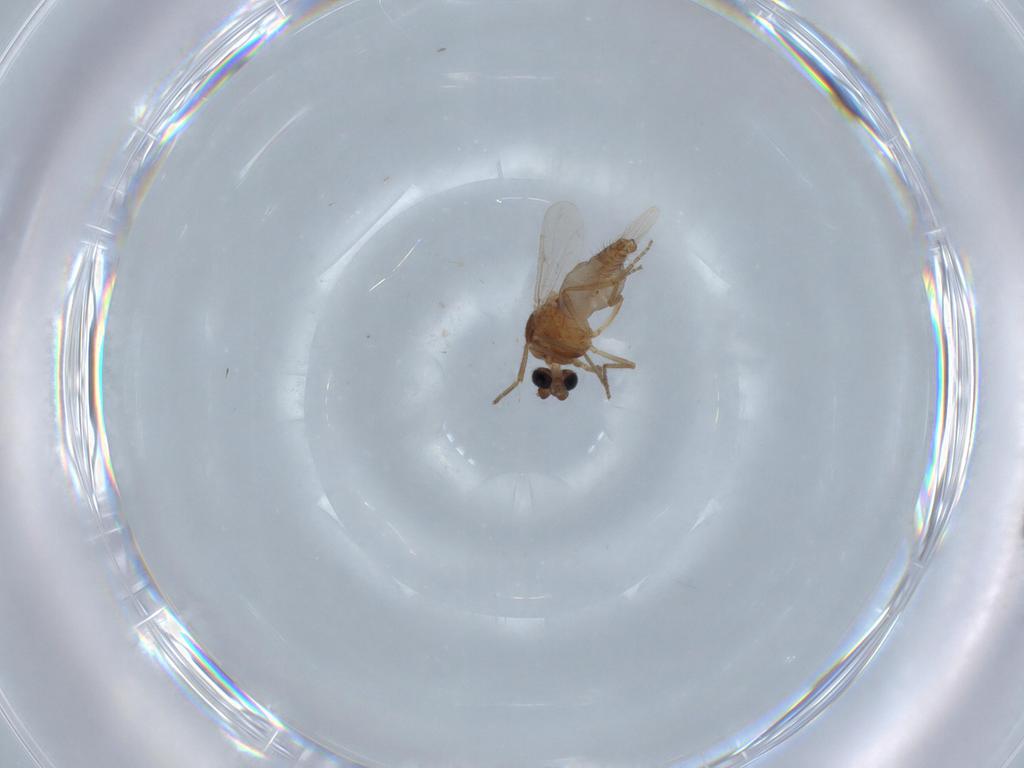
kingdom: Animalia
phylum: Arthropoda
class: Insecta
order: Diptera
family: Ceratopogonidae
